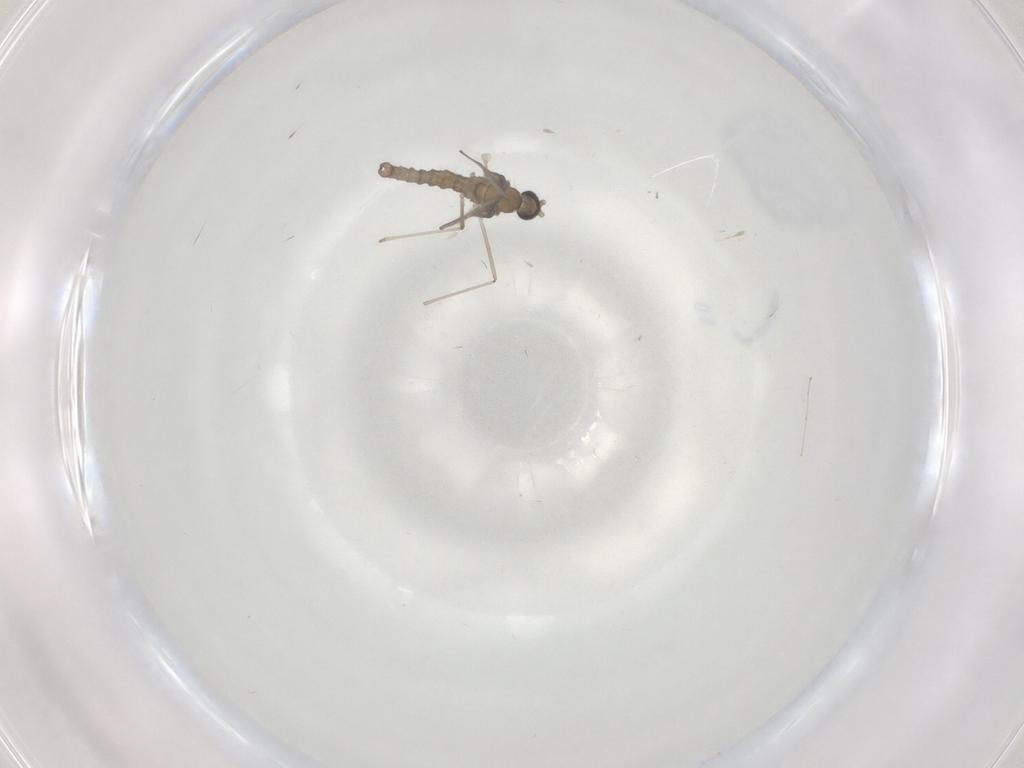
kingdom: Animalia
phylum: Arthropoda
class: Insecta
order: Diptera
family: Cecidomyiidae
